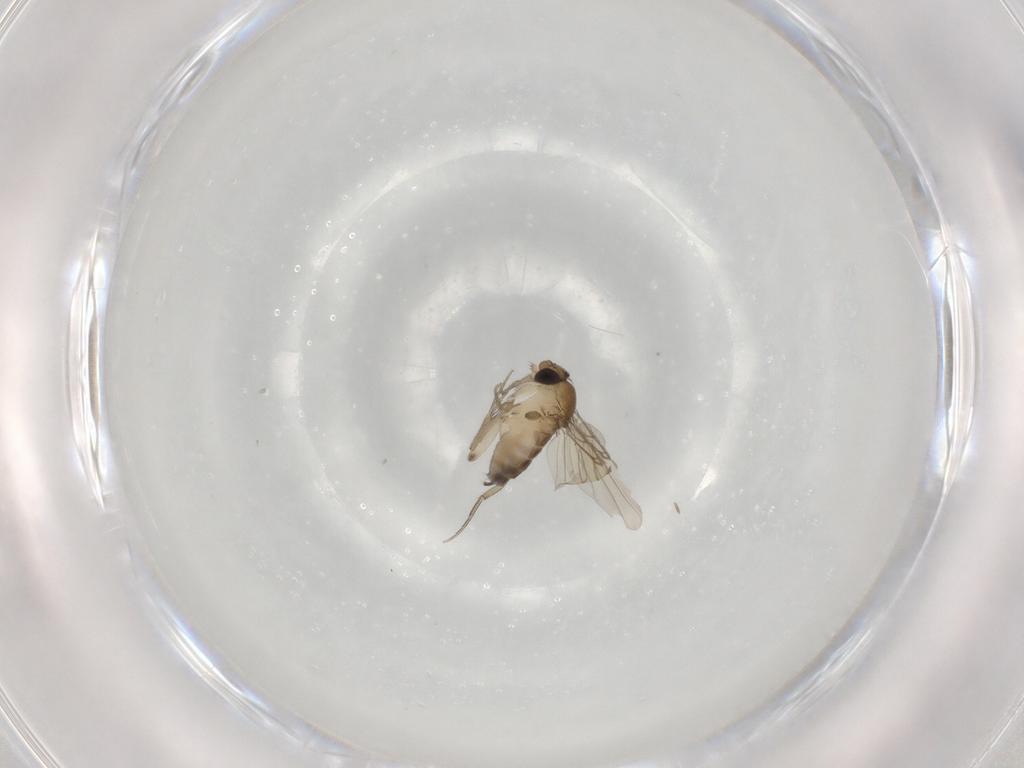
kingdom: Animalia
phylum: Arthropoda
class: Insecta
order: Diptera
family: Phoridae
